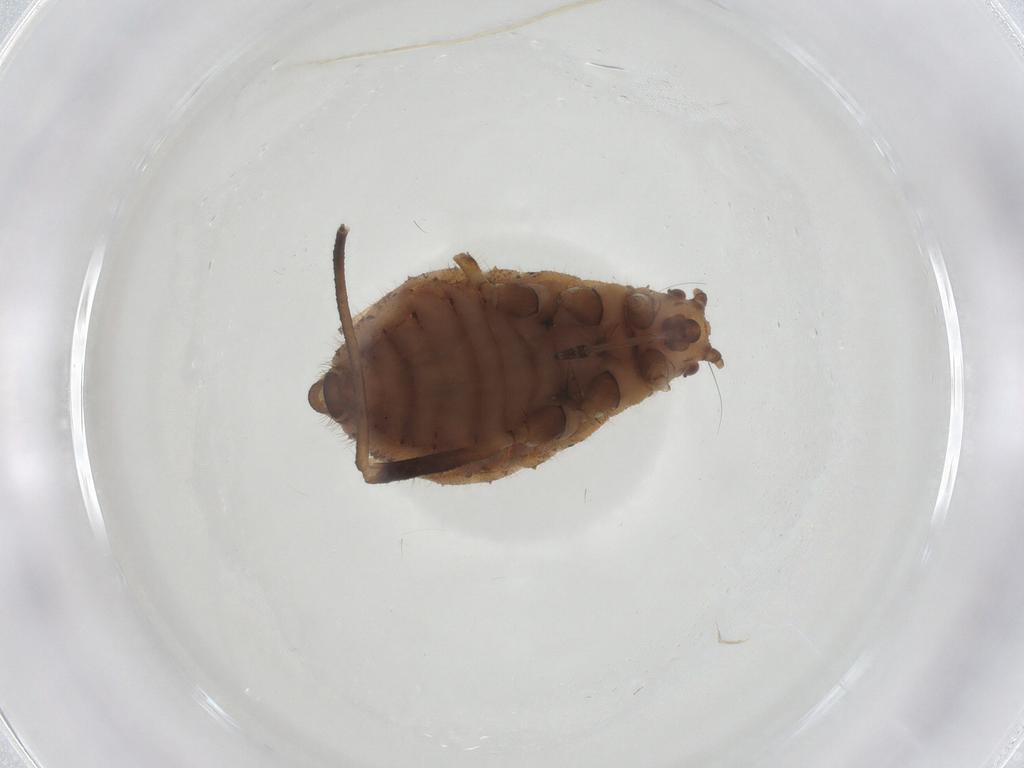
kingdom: Animalia
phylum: Arthropoda
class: Insecta
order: Hemiptera
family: Aphididae
